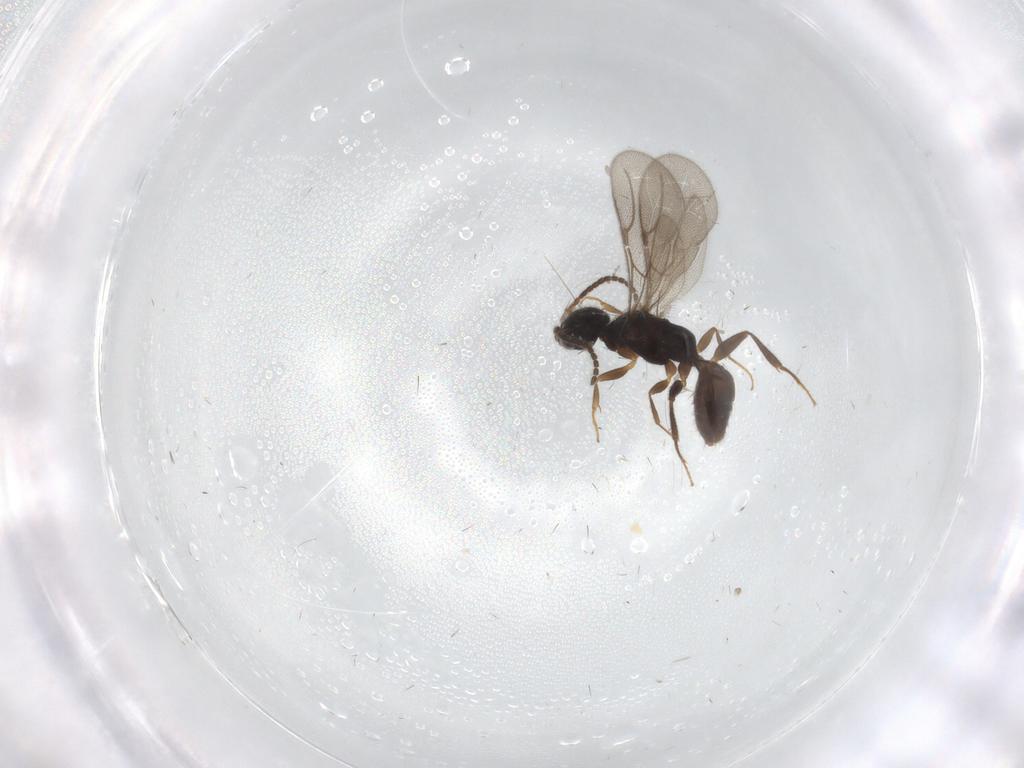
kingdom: Animalia
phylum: Arthropoda
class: Insecta
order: Hymenoptera
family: Bethylidae
